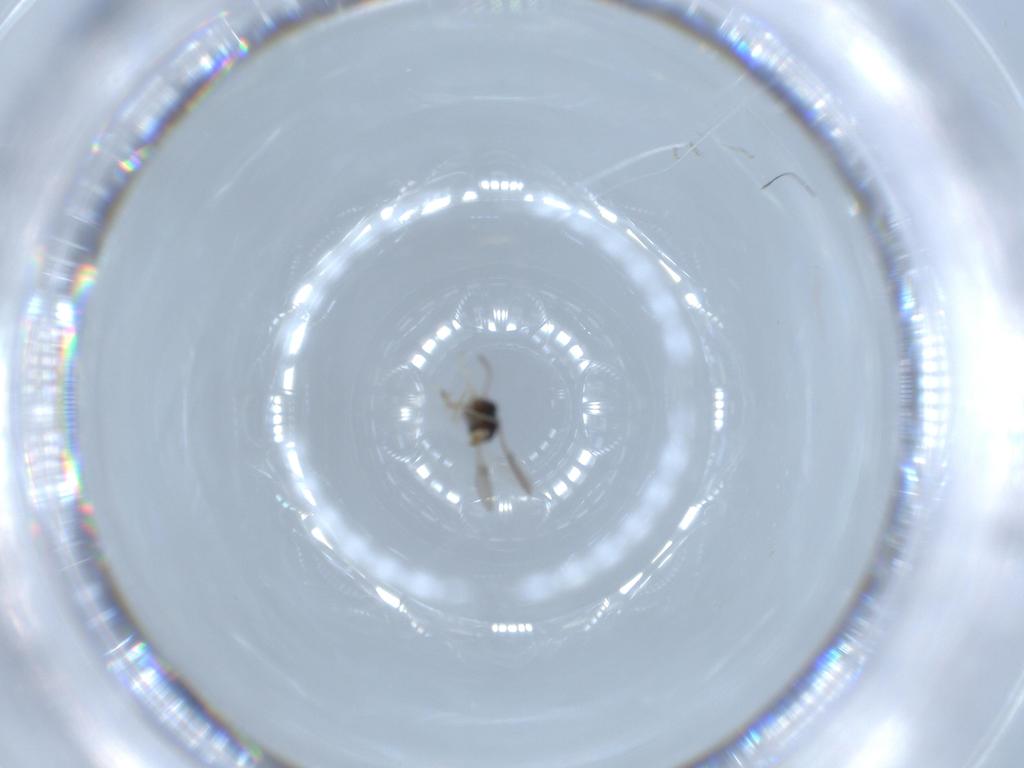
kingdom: Animalia
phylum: Arthropoda
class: Insecta
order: Hymenoptera
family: Scelionidae
